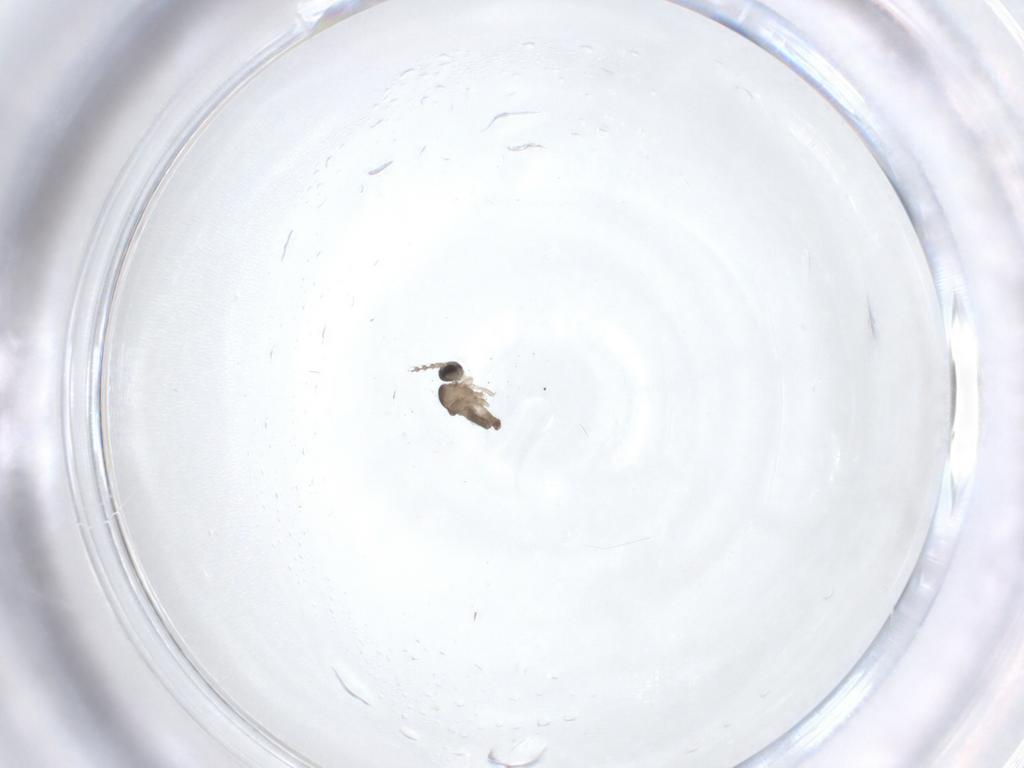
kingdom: Animalia
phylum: Arthropoda
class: Insecta
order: Diptera
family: Cecidomyiidae
